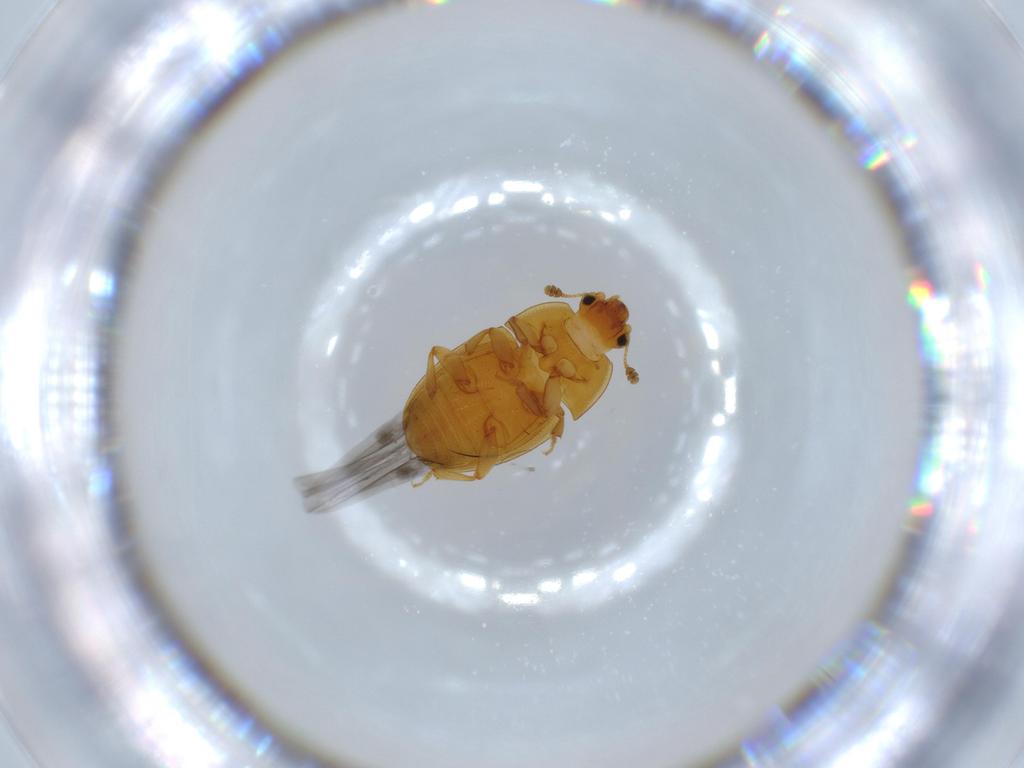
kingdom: Animalia
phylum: Arthropoda
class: Insecta
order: Coleoptera
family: Nitidulidae
